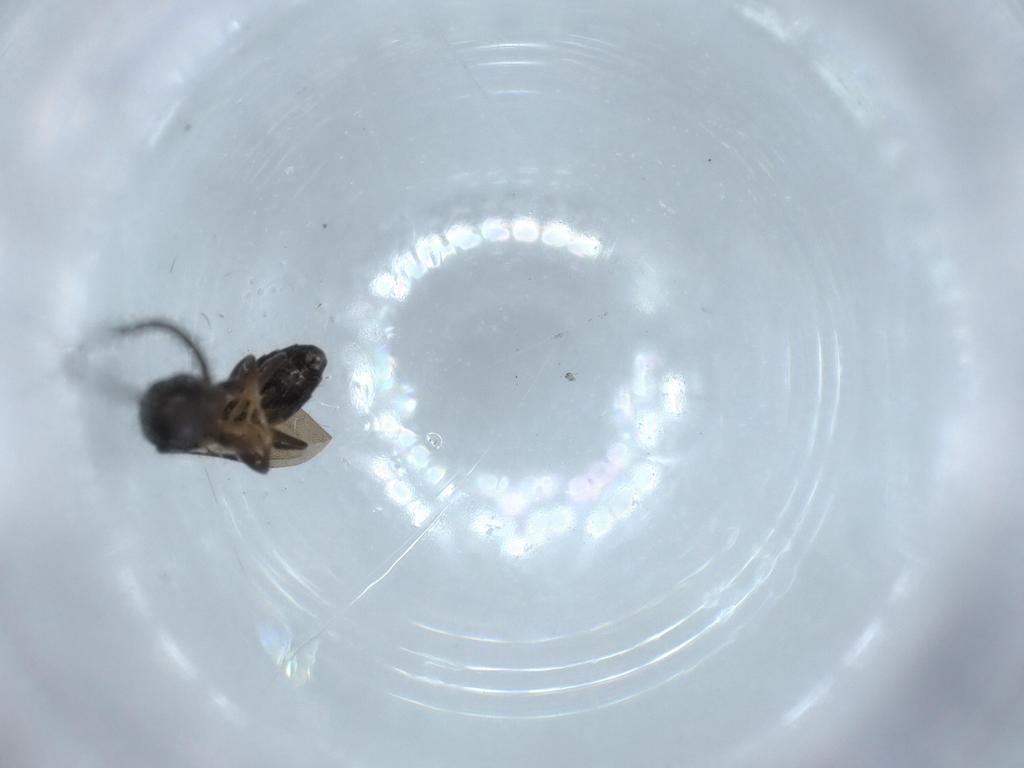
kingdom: Animalia
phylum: Arthropoda
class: Insecta
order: Hymenoptera
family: Bethylidae
